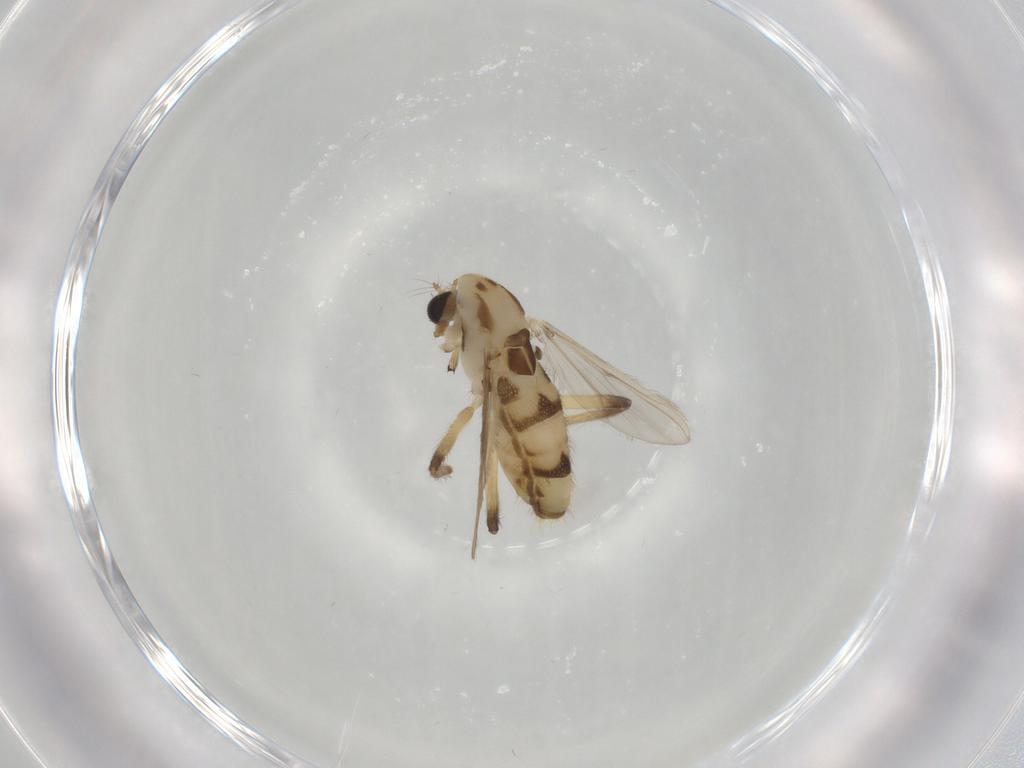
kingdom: Animalia
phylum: Arthropoda
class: Insecta
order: Diptera
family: Chironomidae
